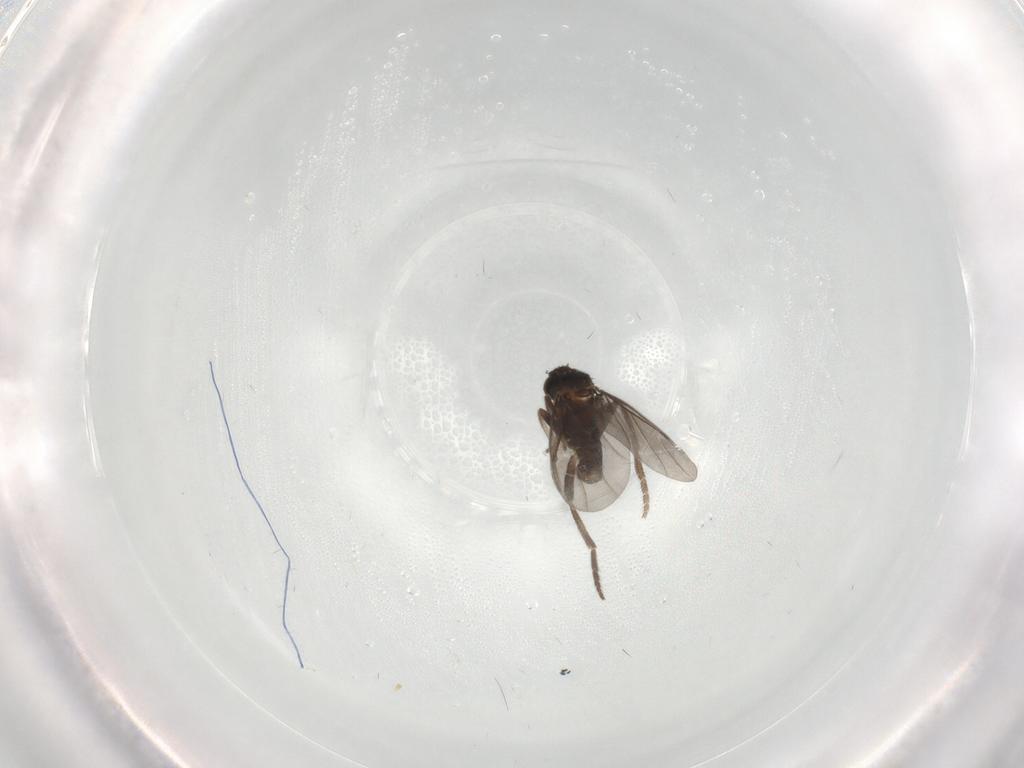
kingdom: Animalia
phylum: Arthropoda
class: Insecta
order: Diptera
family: Phoridae
